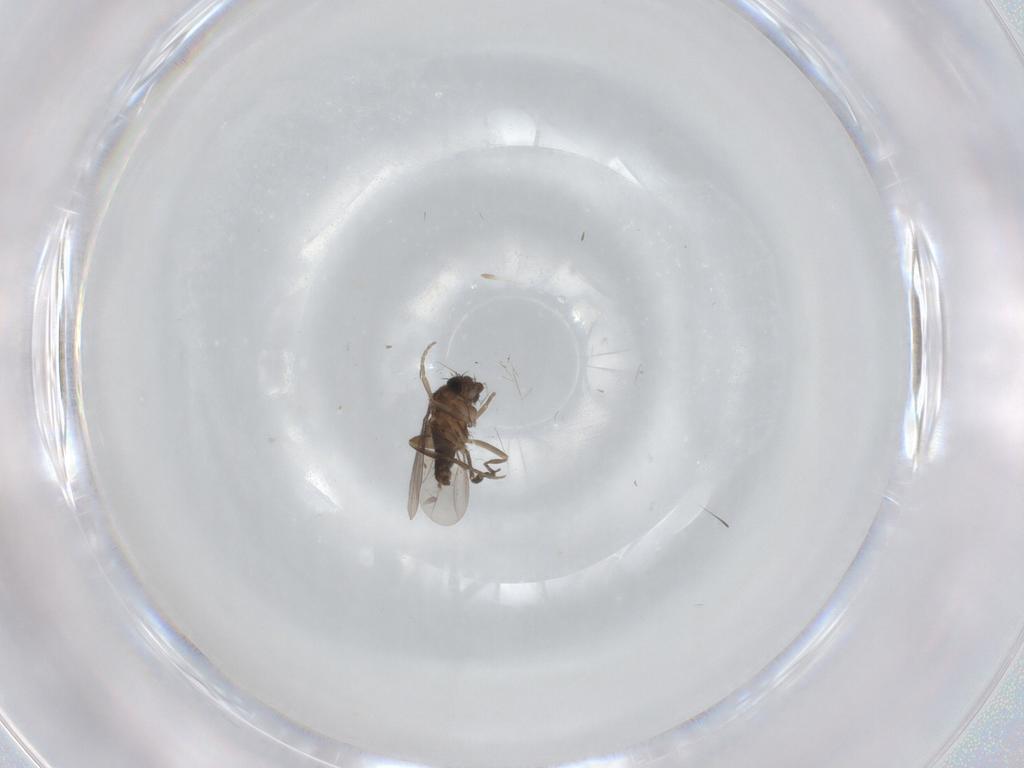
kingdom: Animalia
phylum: Arthropoda
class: Insecta
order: Diptera
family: Phoridae
